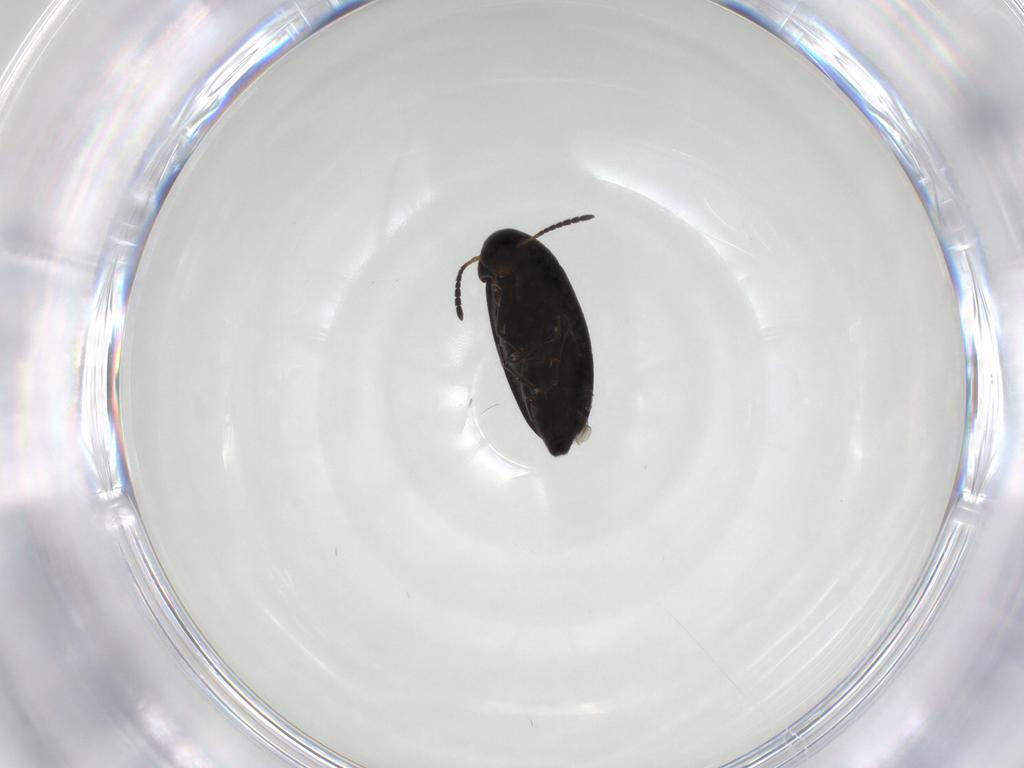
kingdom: Animalia
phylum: Arthropoda
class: Insecta
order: Coleoptera
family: Scraptiidae
